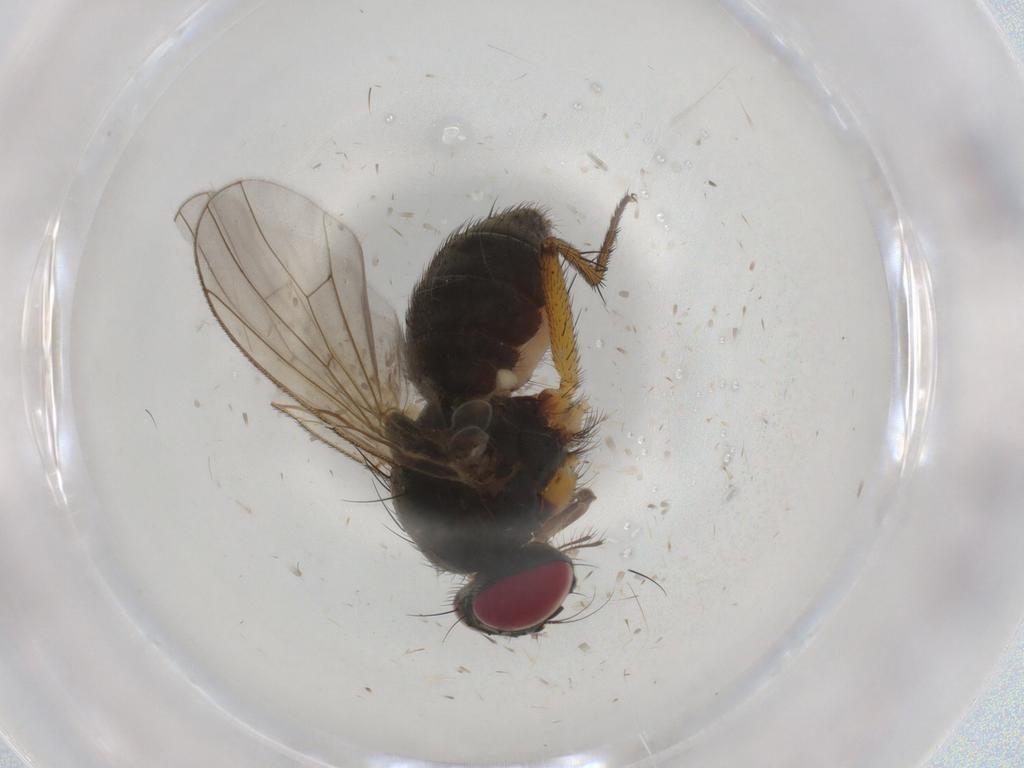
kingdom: Animalia
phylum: Arthropoda
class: Insecta
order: Diptera
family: Muscidae
